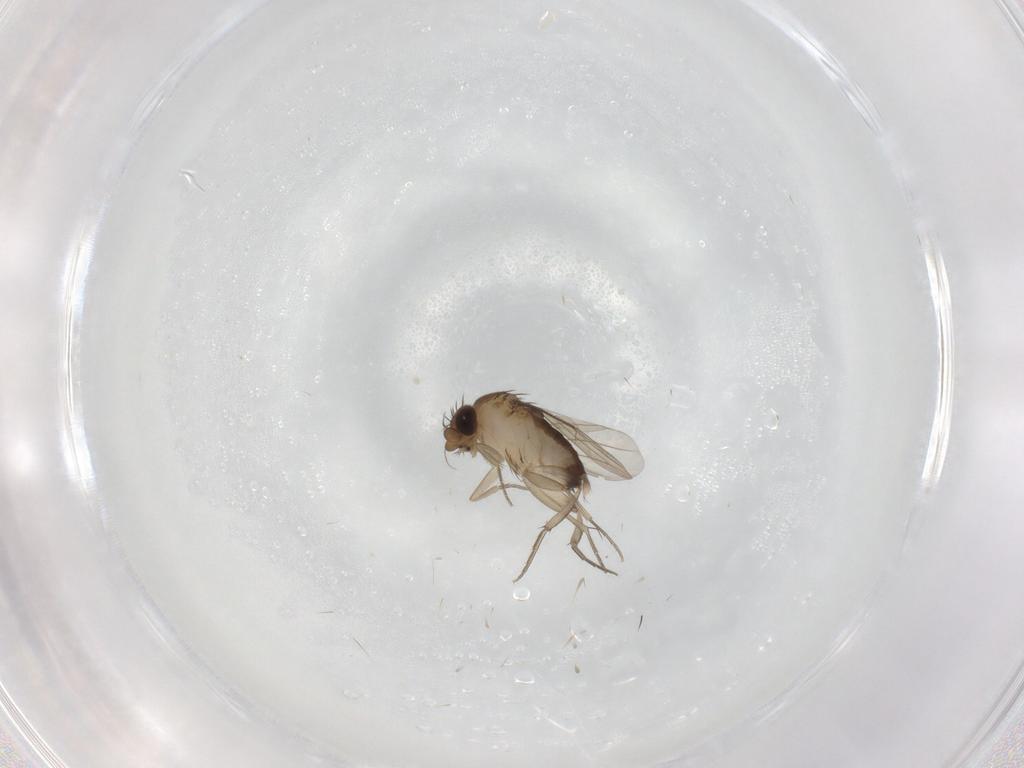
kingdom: Animalia
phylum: Arthropoda
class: Insecta
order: Diptera
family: Phoridae
